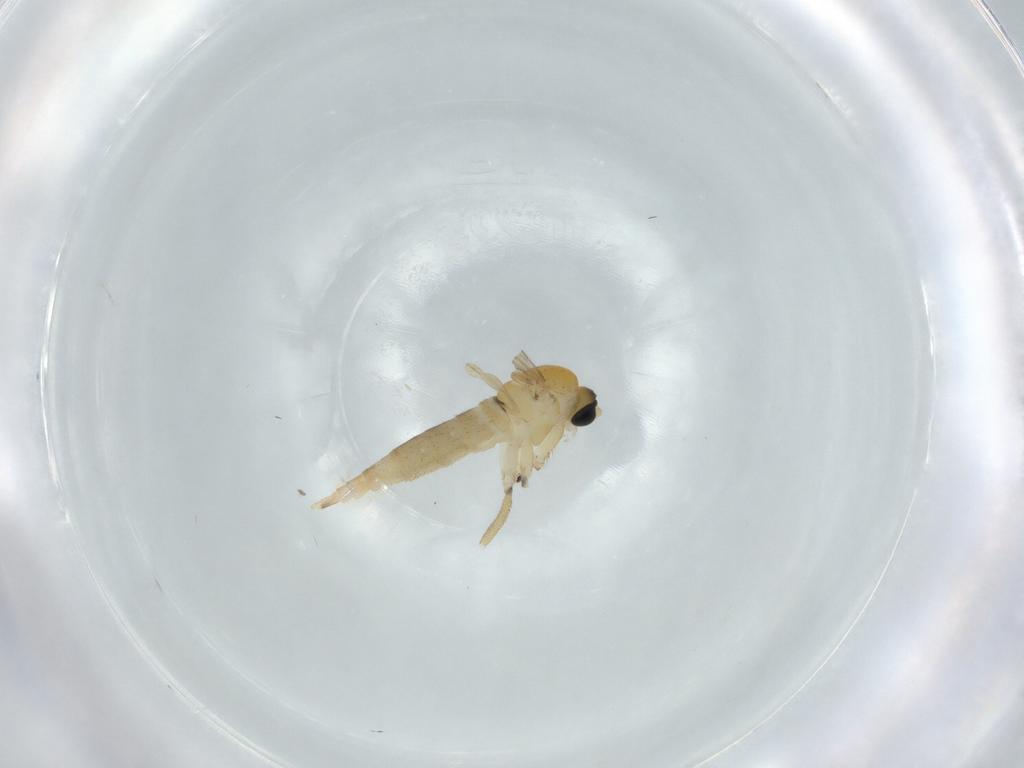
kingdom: Animalia
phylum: Arthropoda
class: Insecta
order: Diptera
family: Sciaridae
